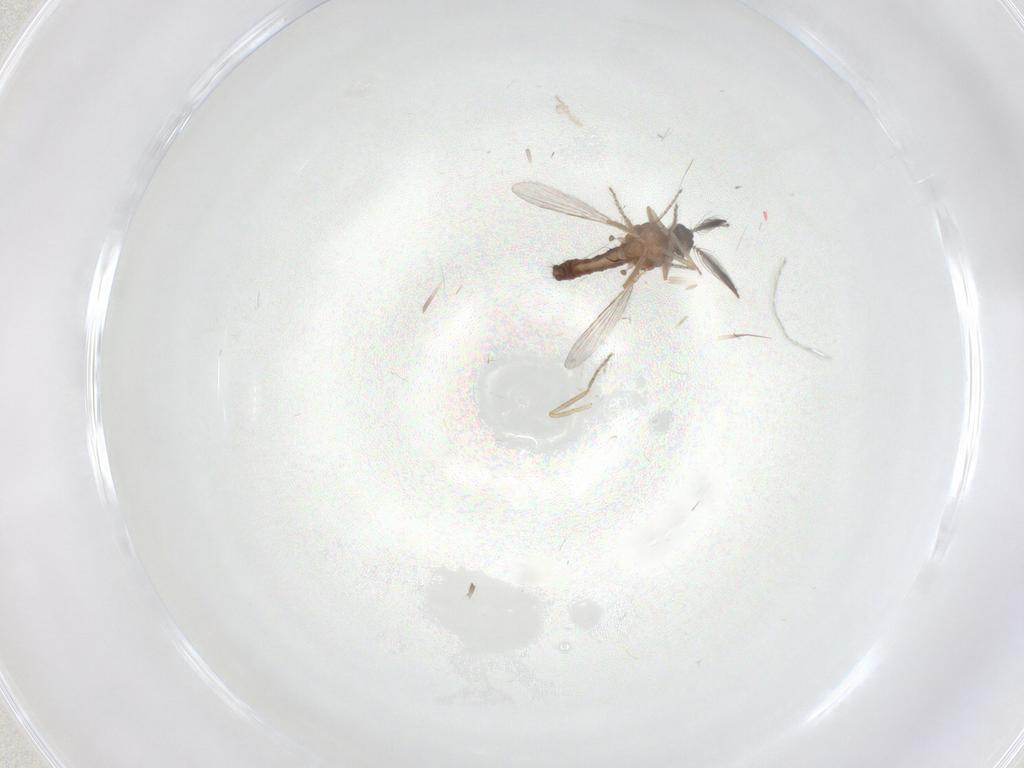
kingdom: Animalia
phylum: Arthropoda
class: Insecta
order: Diptera
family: Ceratopogonidae
